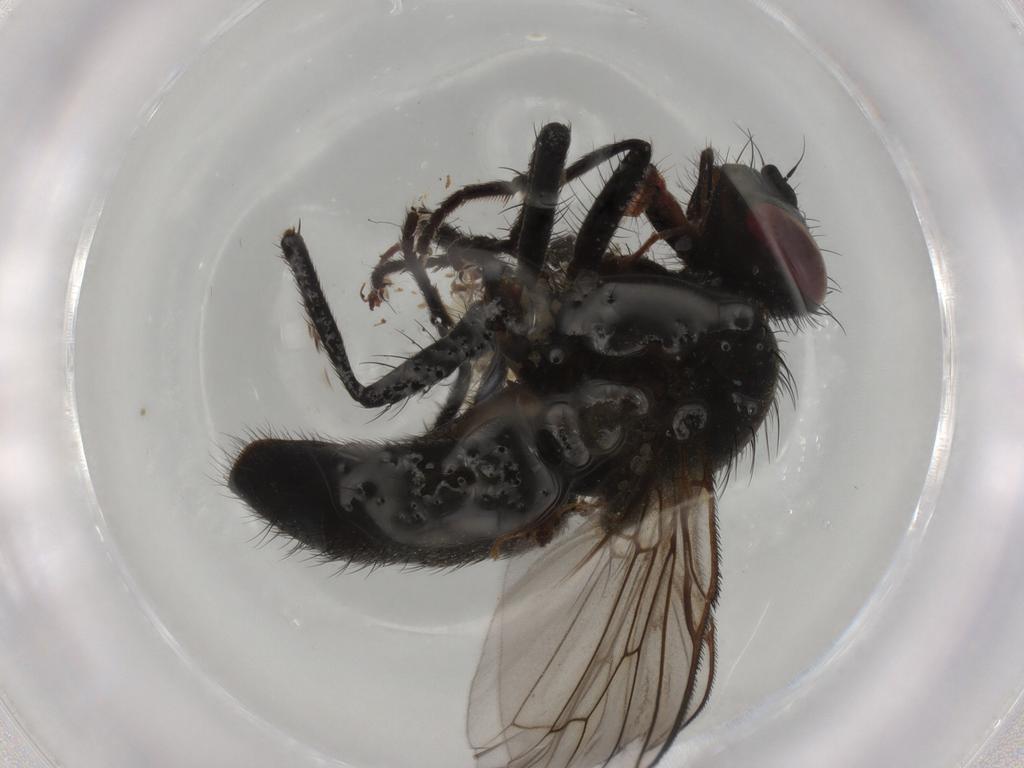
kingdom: Animalia
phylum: Arthropoda
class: Insecta
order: Diptera
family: Chironomidae
